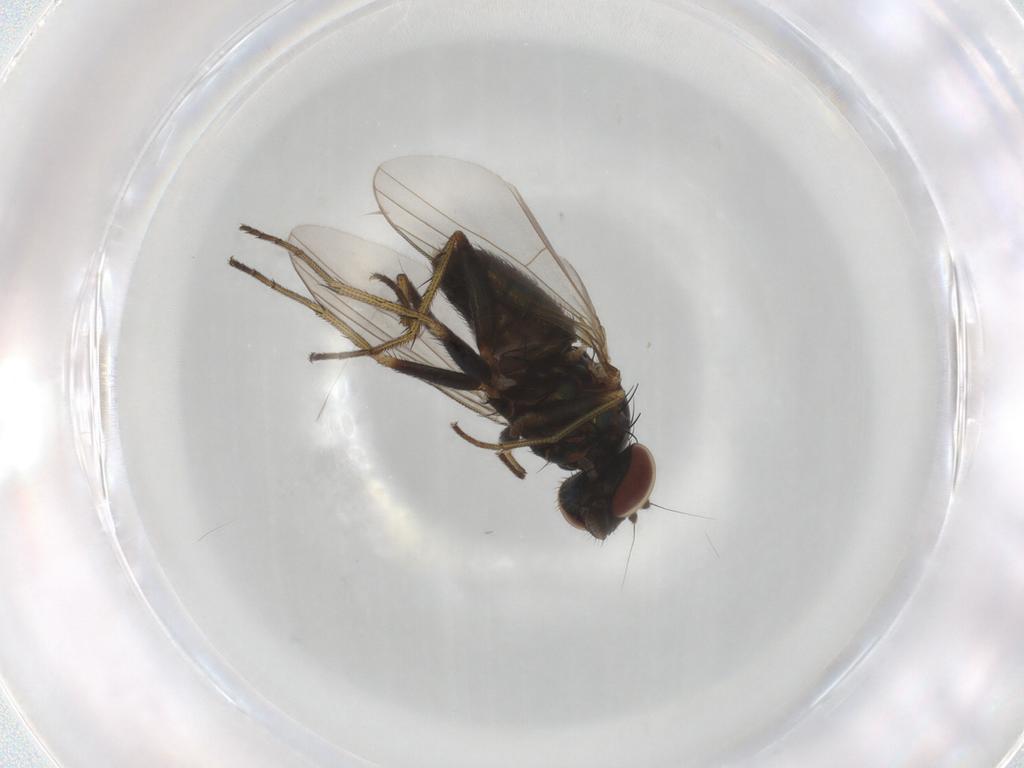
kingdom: Animalia
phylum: Arthropoda
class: Insecta
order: Diptera
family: Dolichopodidae
